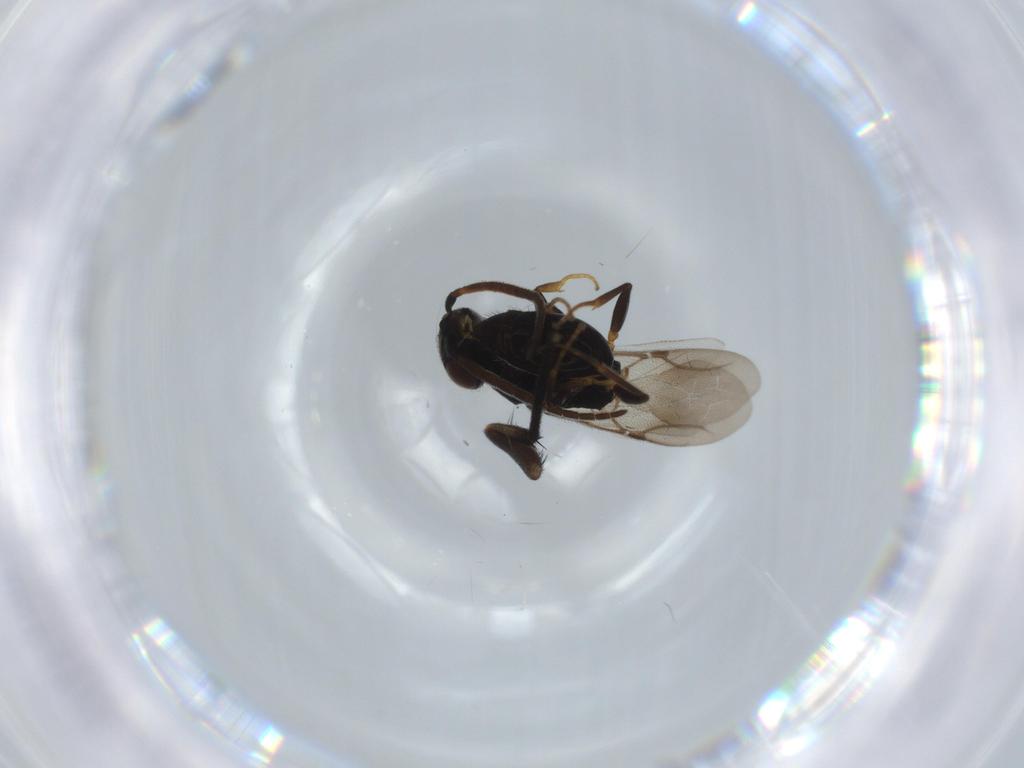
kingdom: Animalia
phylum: Arthropoda
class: Insecta
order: Hymenoptera
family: Bethylidae
